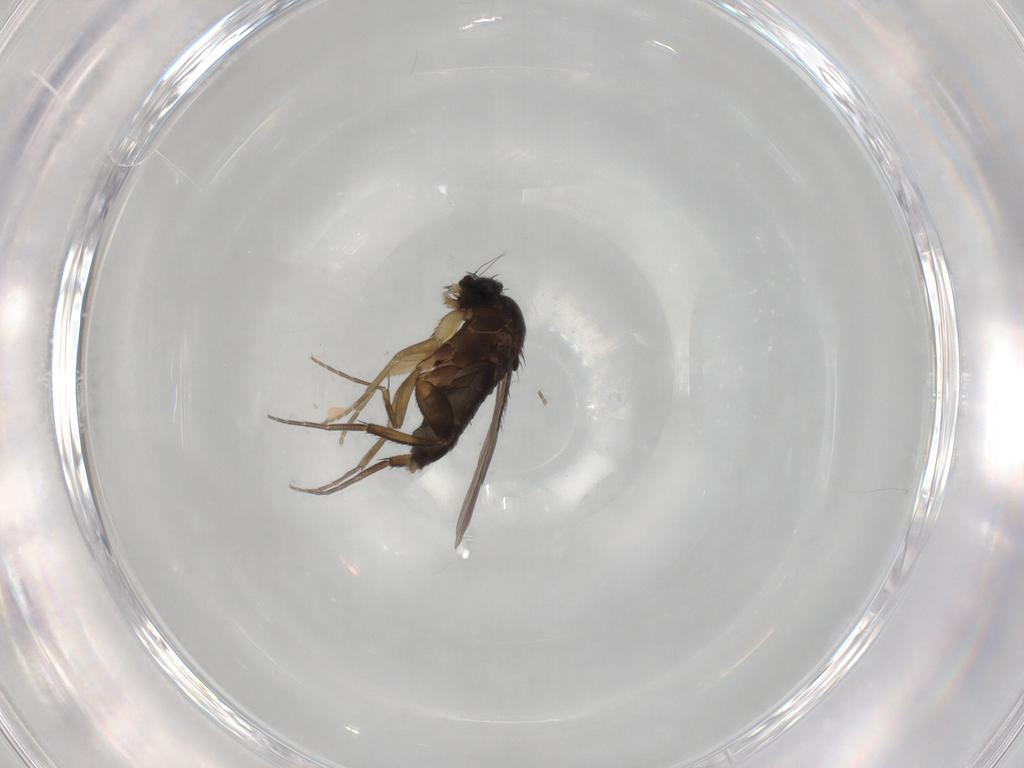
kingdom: Animalia
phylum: Arthropoda
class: Insecta
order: Diptera
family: Phoridae
